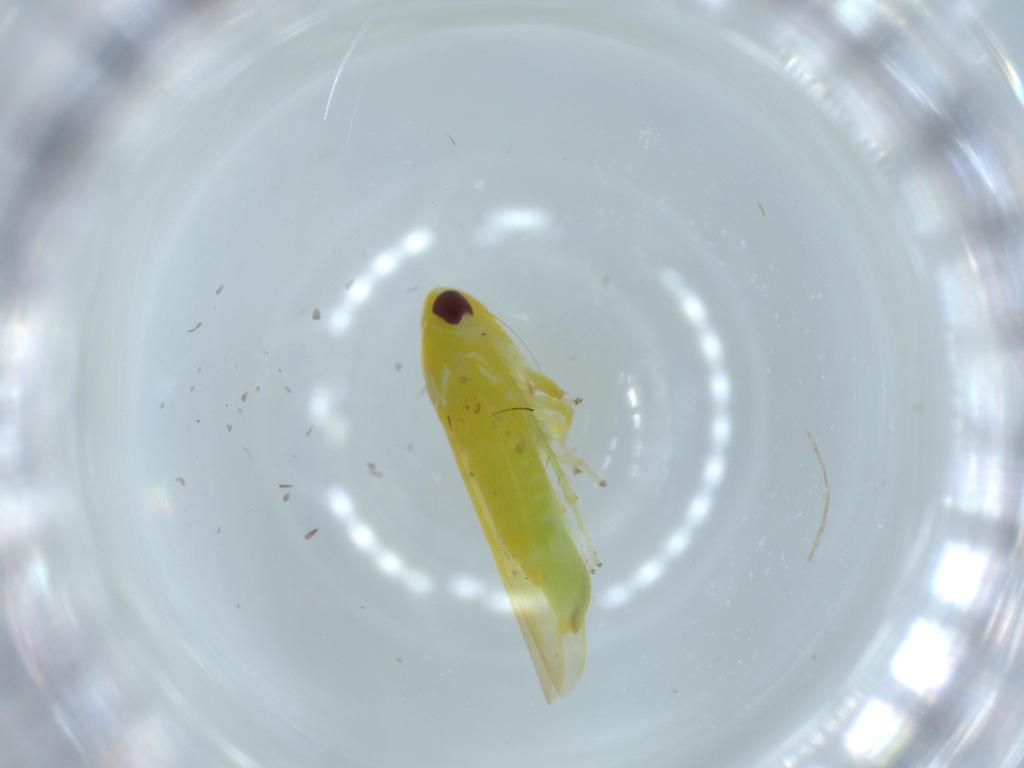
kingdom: Animalia
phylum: Arthropoda
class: Insecta
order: Hemiptera
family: Cicadellidae
